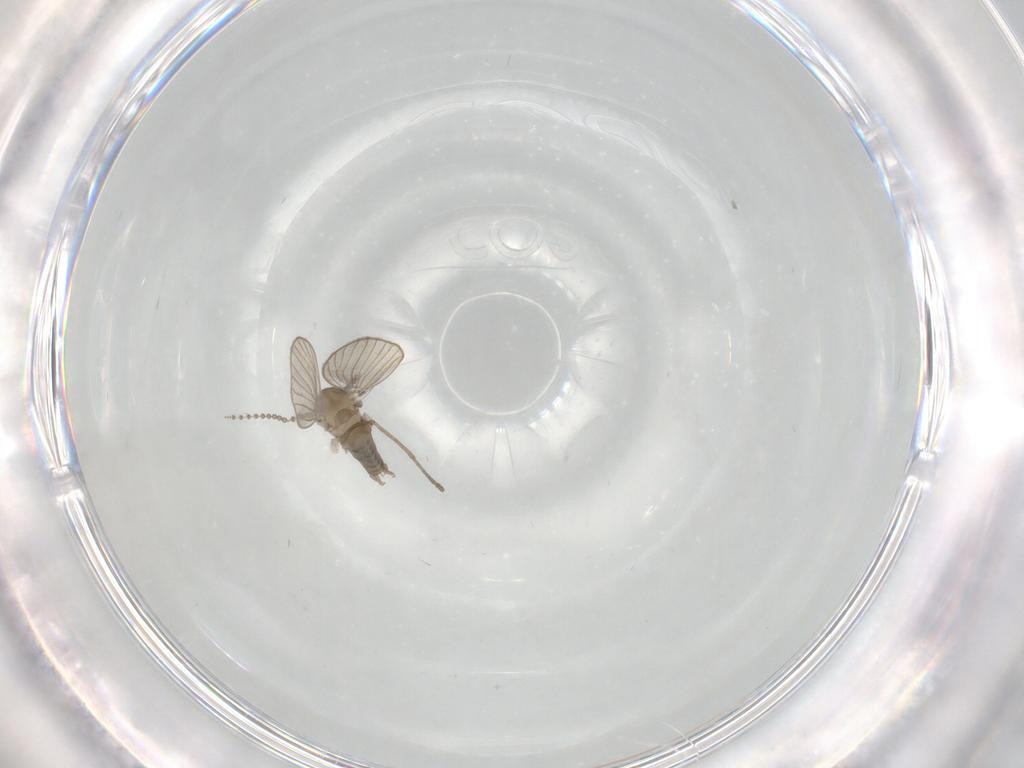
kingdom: Animalia
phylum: Arthropoda
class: Insecta
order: Diptera
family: Psychodidae
